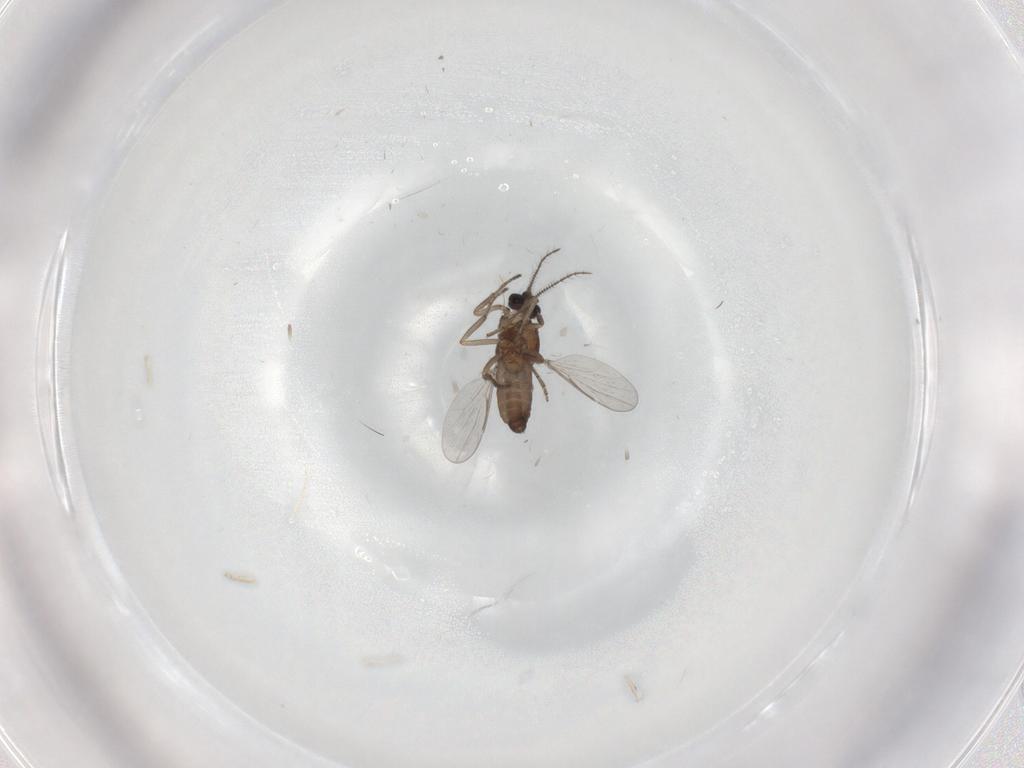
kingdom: Animalia
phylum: Arthropoda
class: Insecta
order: Diptera
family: Ceratopogonidae
